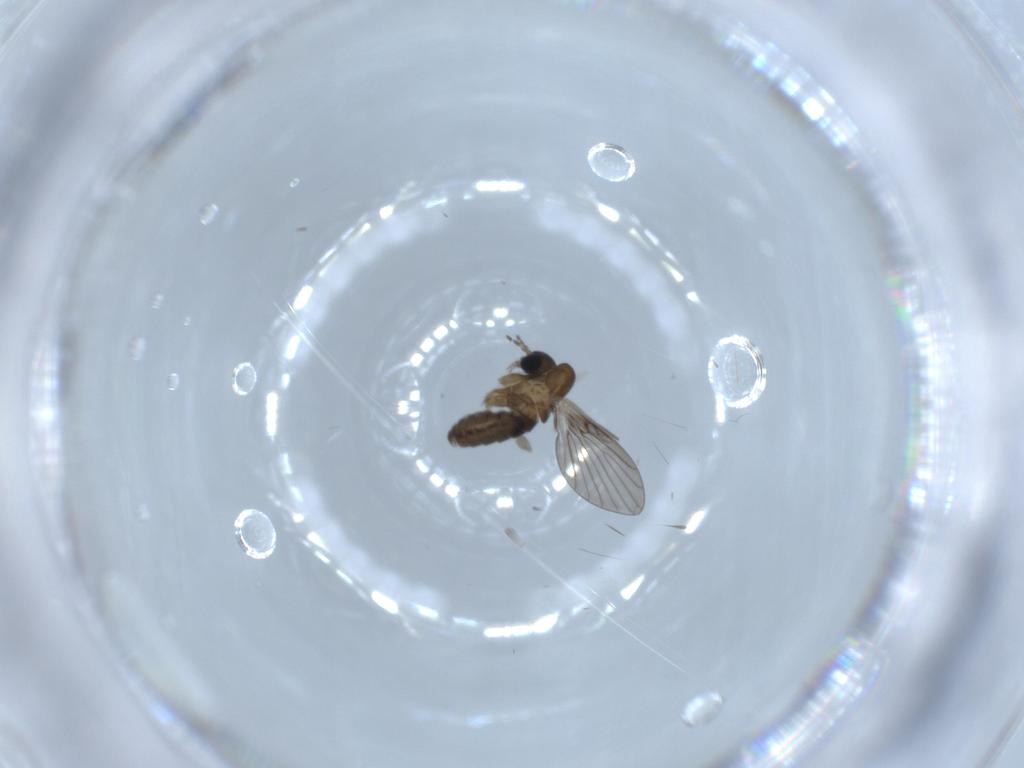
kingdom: Animalia
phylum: Arthropoda
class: Insecta
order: Diptera
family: Psychodidae
